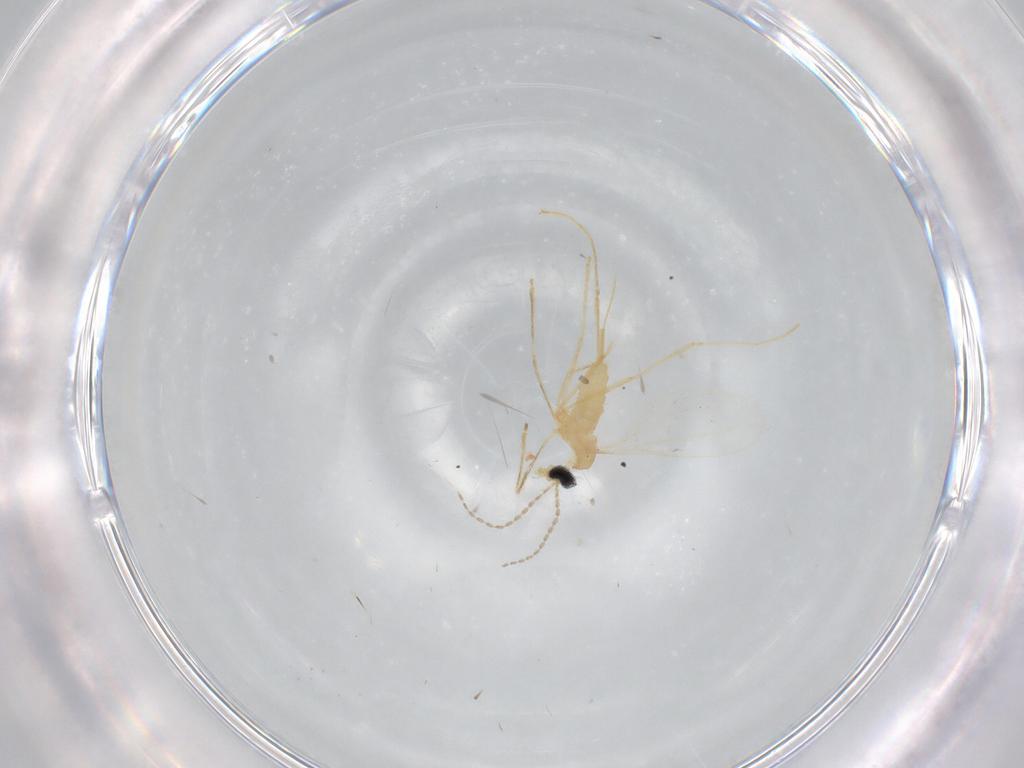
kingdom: Animalia
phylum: Arthropoda
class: Insecta
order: Diptera
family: Cecidomyiidae
